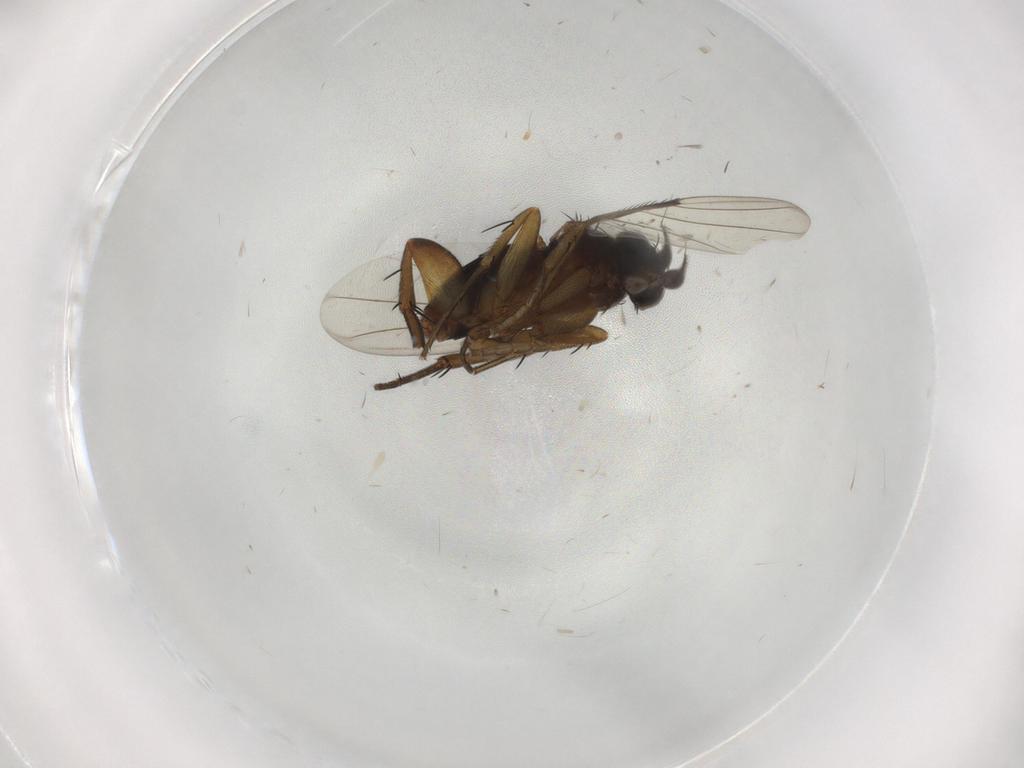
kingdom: Animalia
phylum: Arthropoda
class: Insecta
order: Diptera
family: Phoridae
